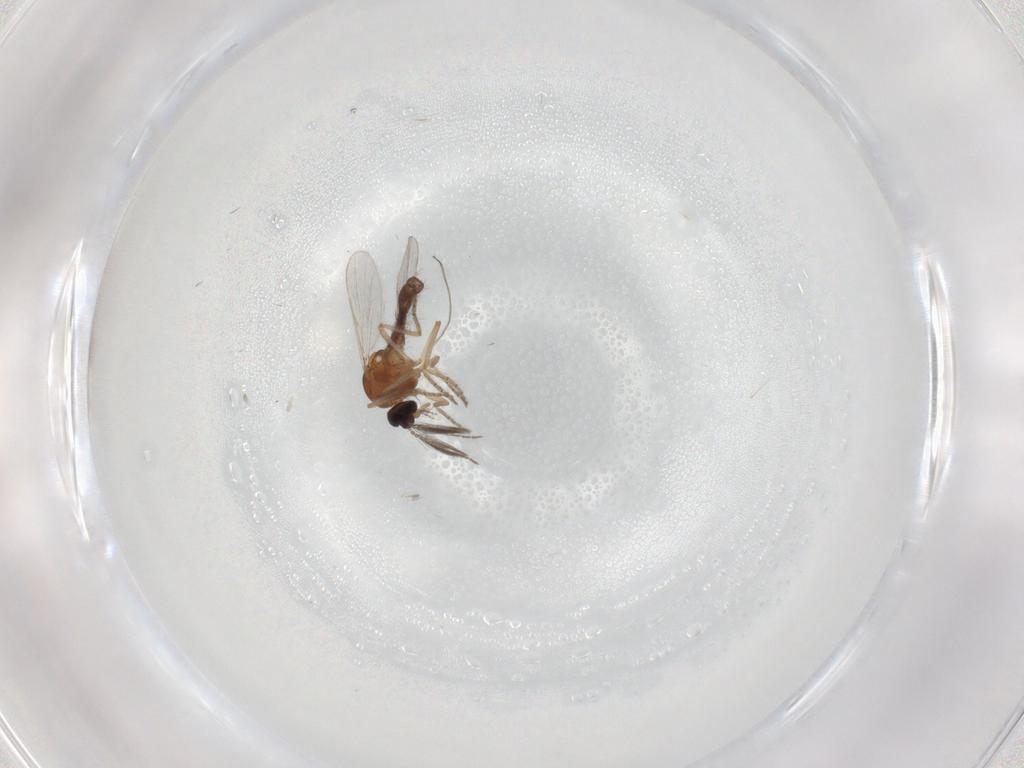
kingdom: Animalia
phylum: Arthropoda
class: Insecta
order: Diptera
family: Ceratopogonidae
